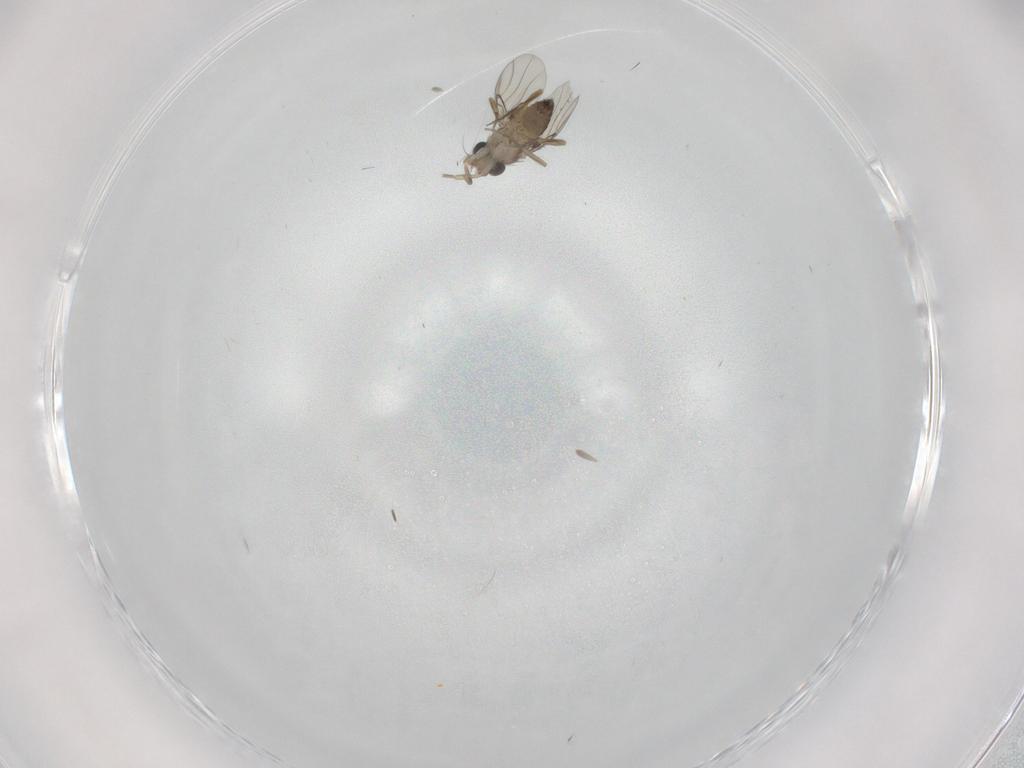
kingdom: Animalia
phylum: Arthropoda
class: Insecta
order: Diptera
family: Phoridae
